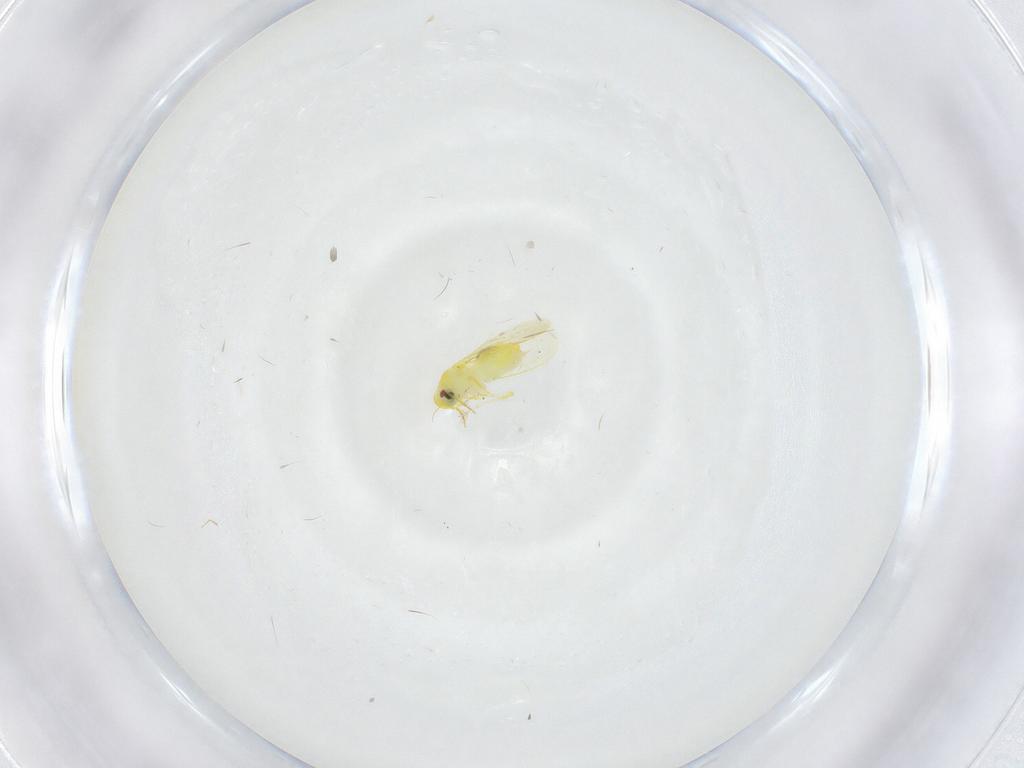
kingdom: Animalia
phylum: Arthropoda
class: Insecta
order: Hemiptera
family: Aleyrodidae
